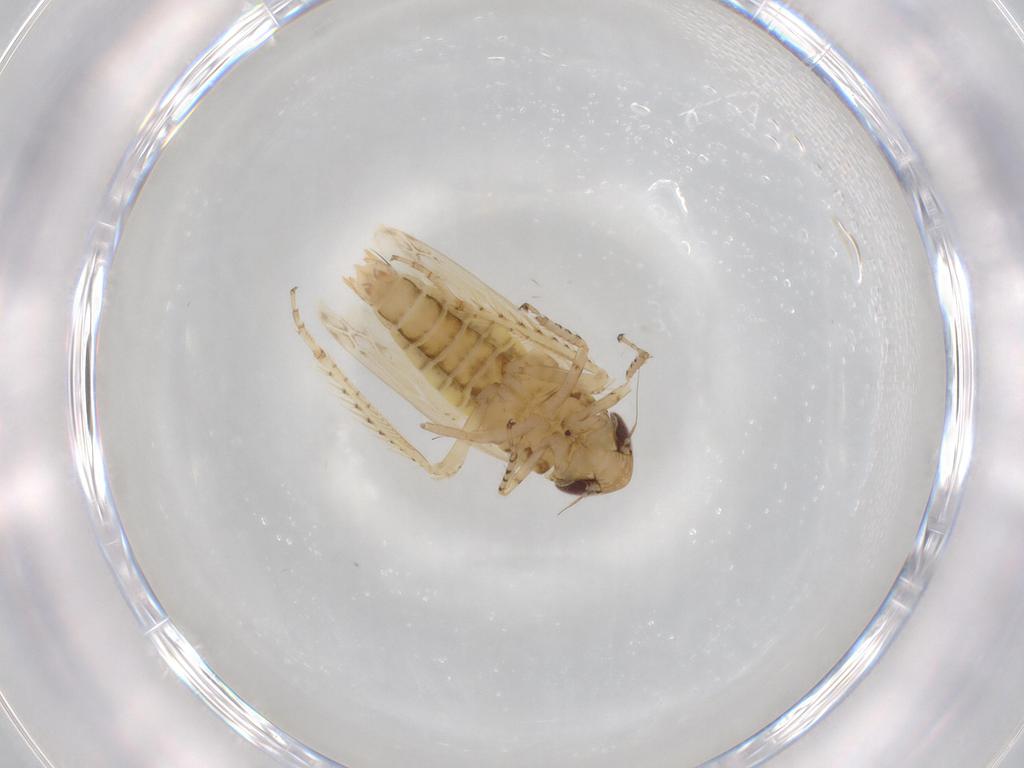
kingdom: Animalia
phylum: Arthropoda
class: Insecta
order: Hemiptera
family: Cicadellidae
